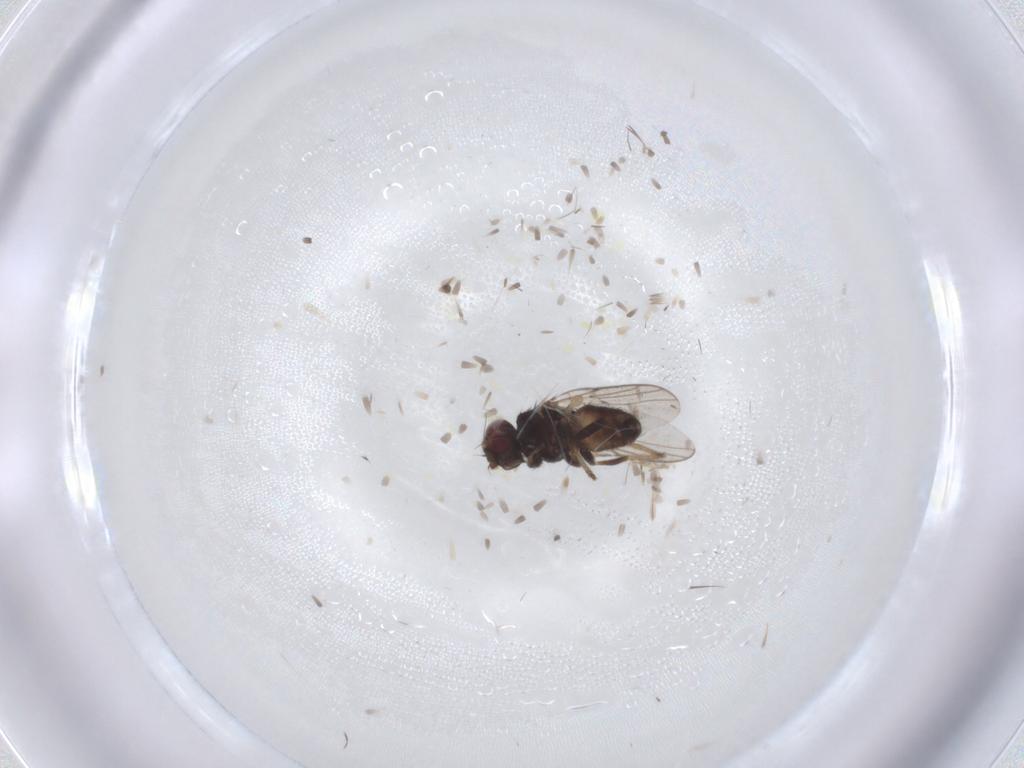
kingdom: Animalia
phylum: Arthropoda
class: Insecta
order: Diptera
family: Chloropidae
